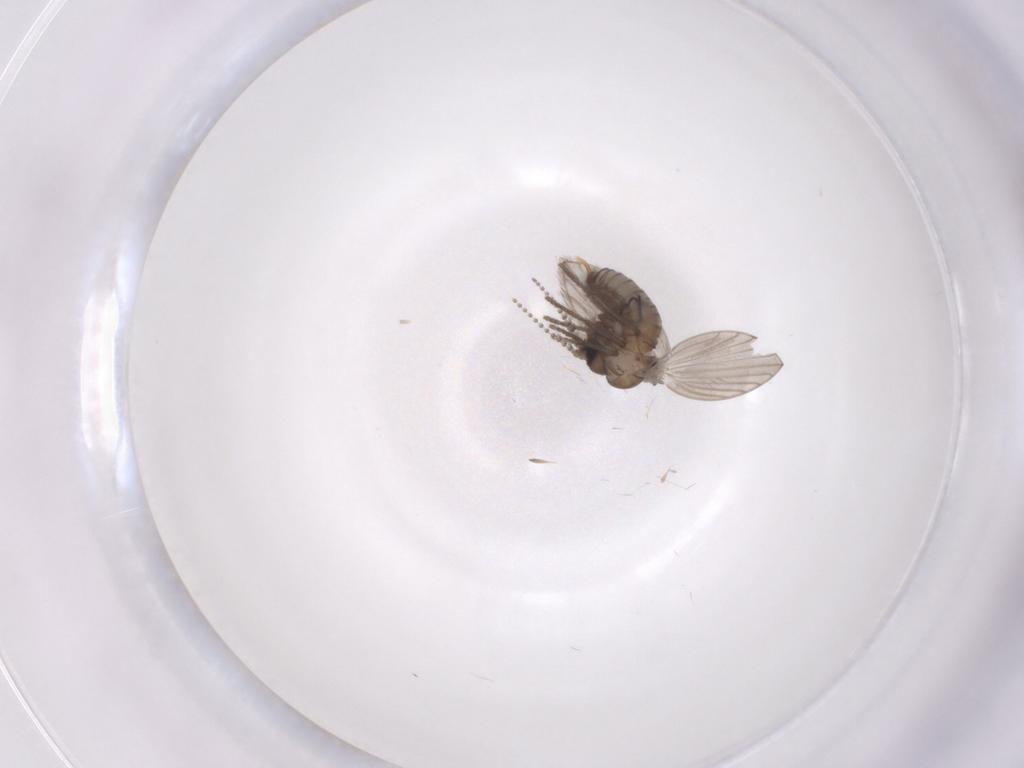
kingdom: Animalia
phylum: Arthropoda
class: Insecta
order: Diptera
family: Psychodidae
